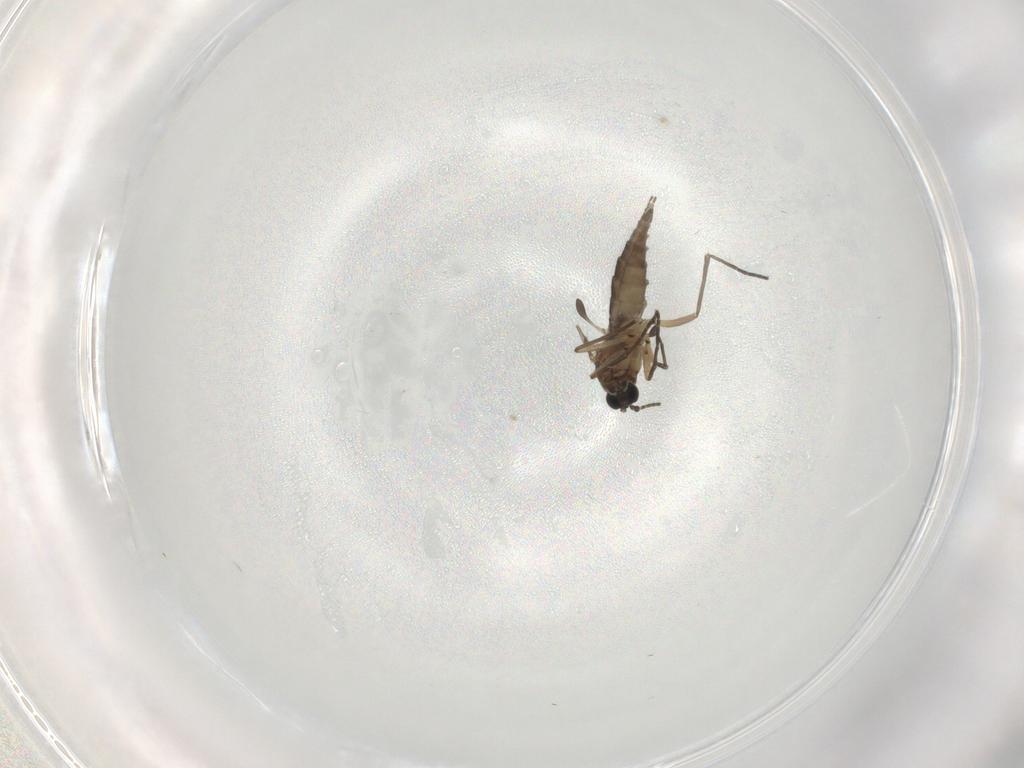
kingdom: Animalia
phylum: Arthropoda
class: Insecta
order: Diptera
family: Sciaridae
